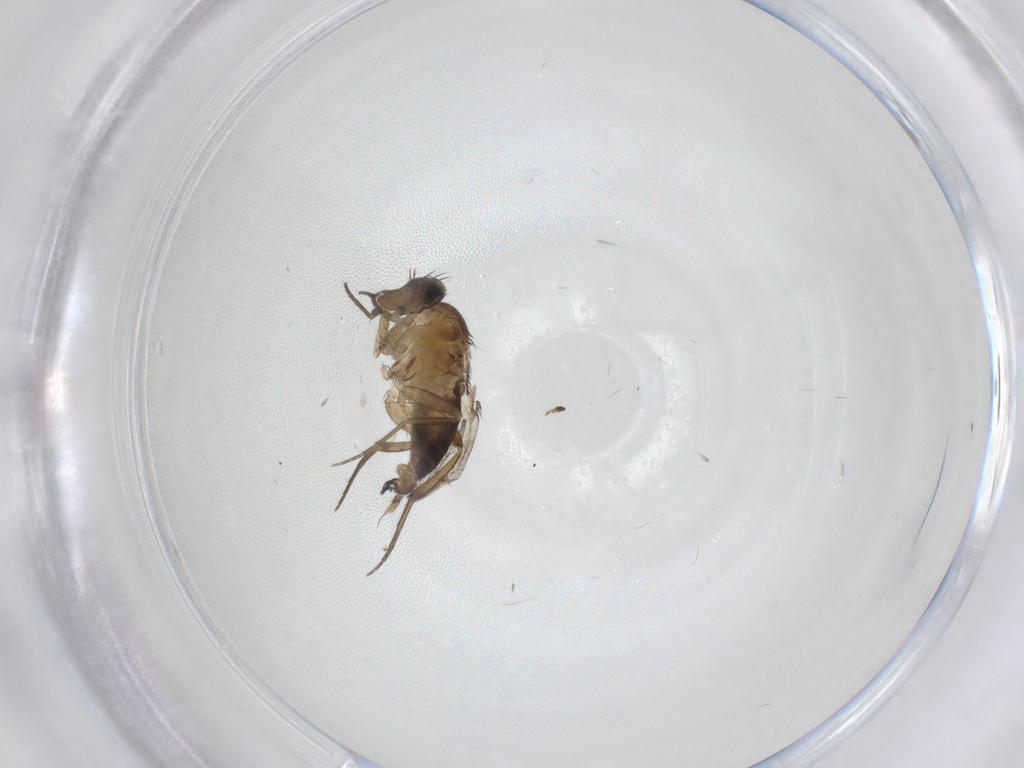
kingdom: Animalia
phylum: Arthropoda
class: Insecta
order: Diptera
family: Phoridae
